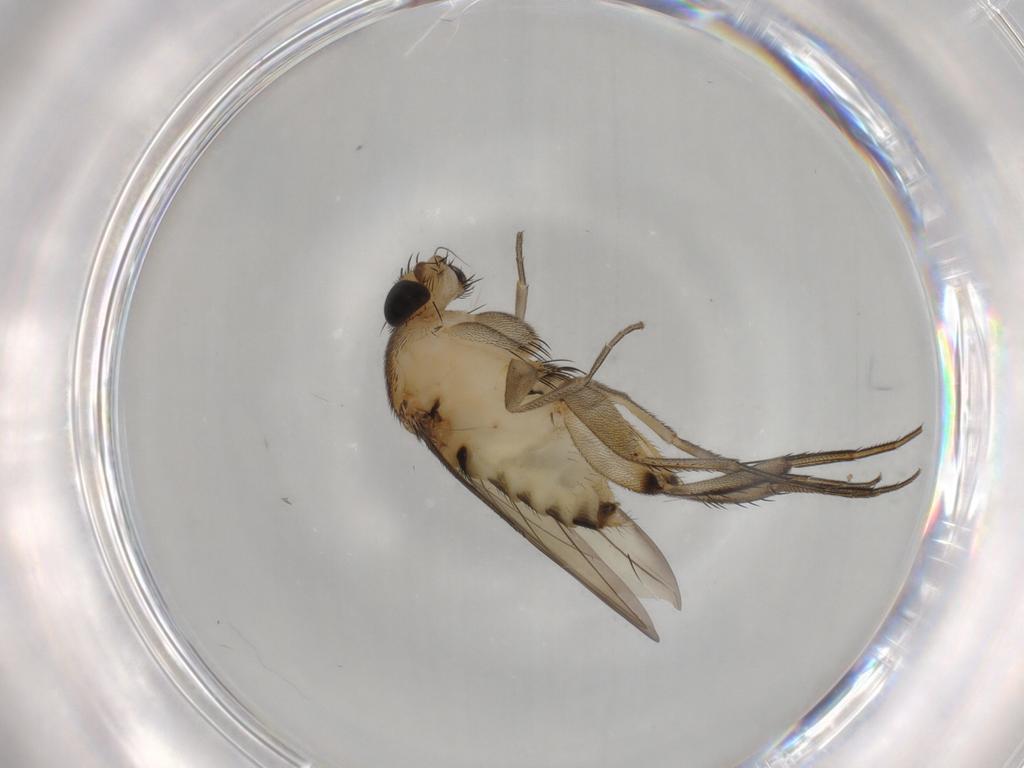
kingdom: Animalia
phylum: Arthropoda
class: Insecta
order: Diptera
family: Phoridae
